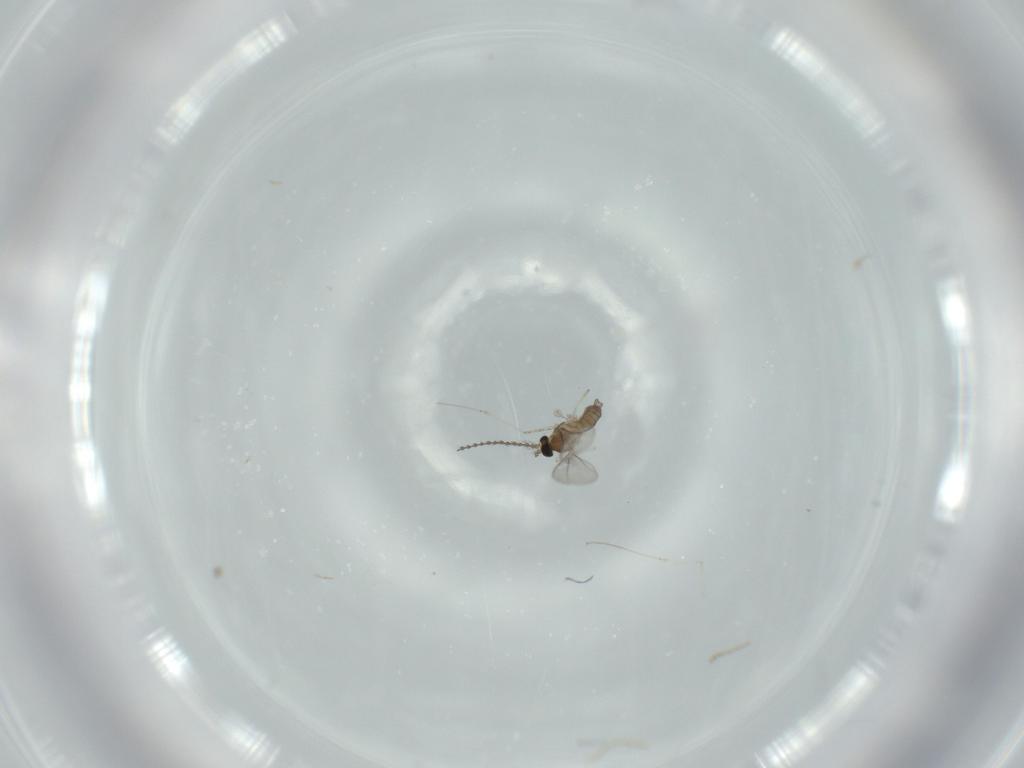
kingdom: Animalia
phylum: Arthropoda
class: Insecta
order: Diptera
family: Cecidomyiidae
